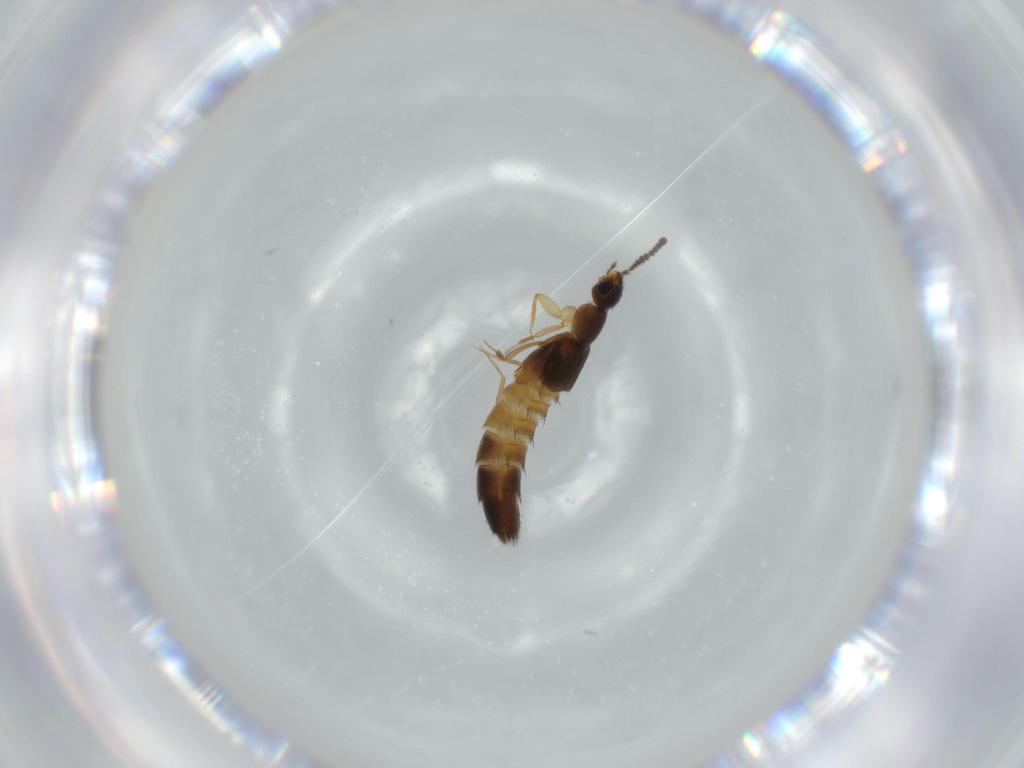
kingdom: Animalia
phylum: Arthropoda
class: Insecta
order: Coleoptera
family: Staphylinidae
